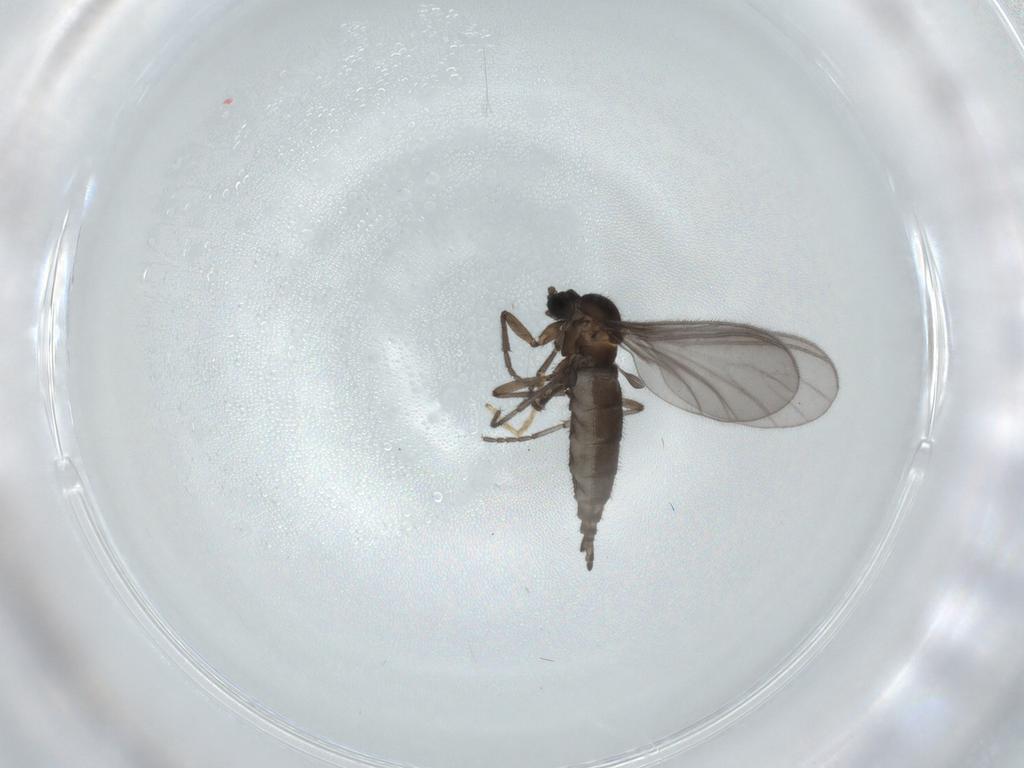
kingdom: Animalia
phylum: Arthropoda
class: Insecta
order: Diptera
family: Sciaridae
